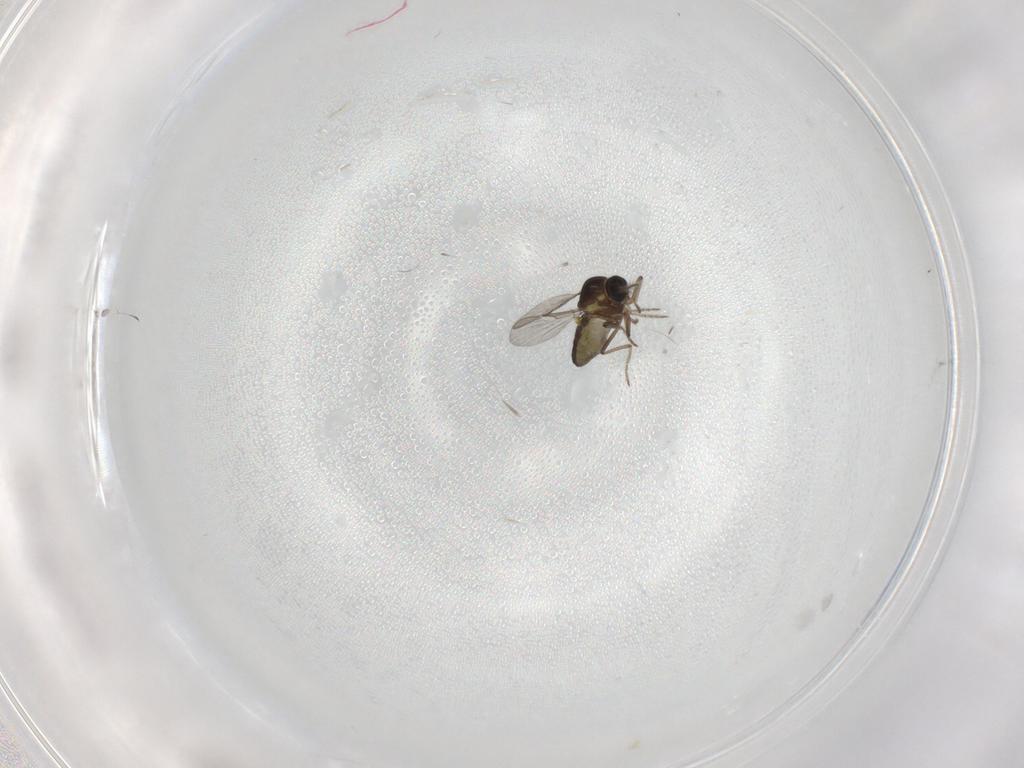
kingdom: Animalia
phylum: Arthropoda
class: Insecta
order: Diptera
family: Ceratopogonidae
